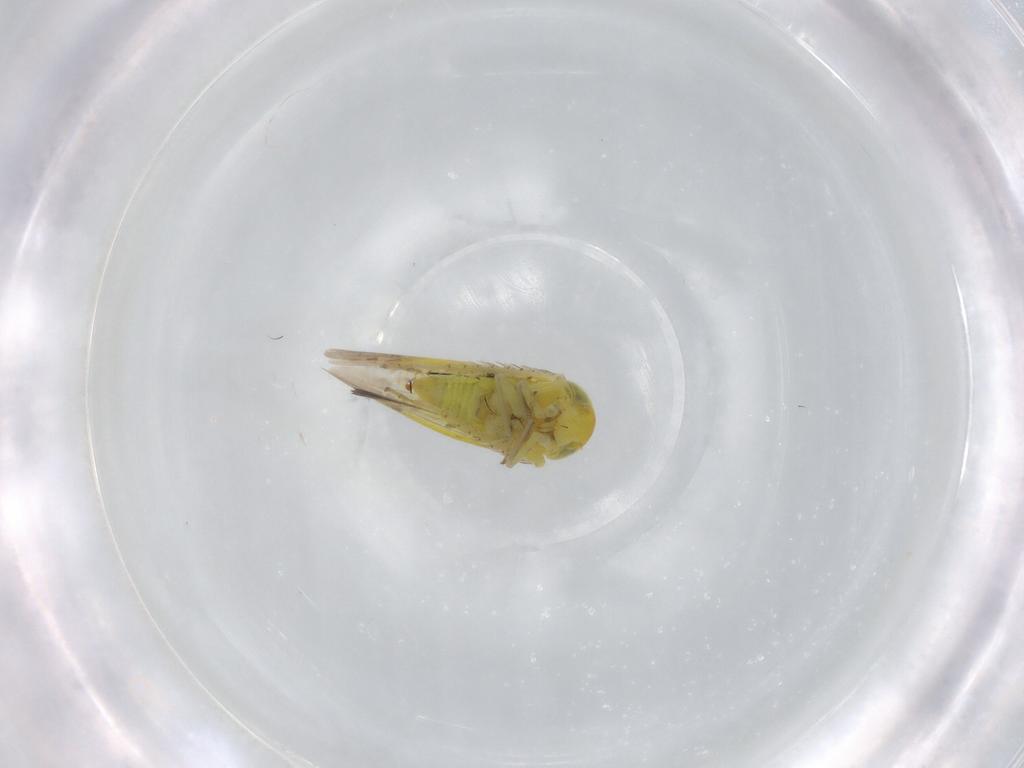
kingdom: Animalia
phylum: Arthropoda
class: Insecta
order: Hemiptera
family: Cicadellidae
